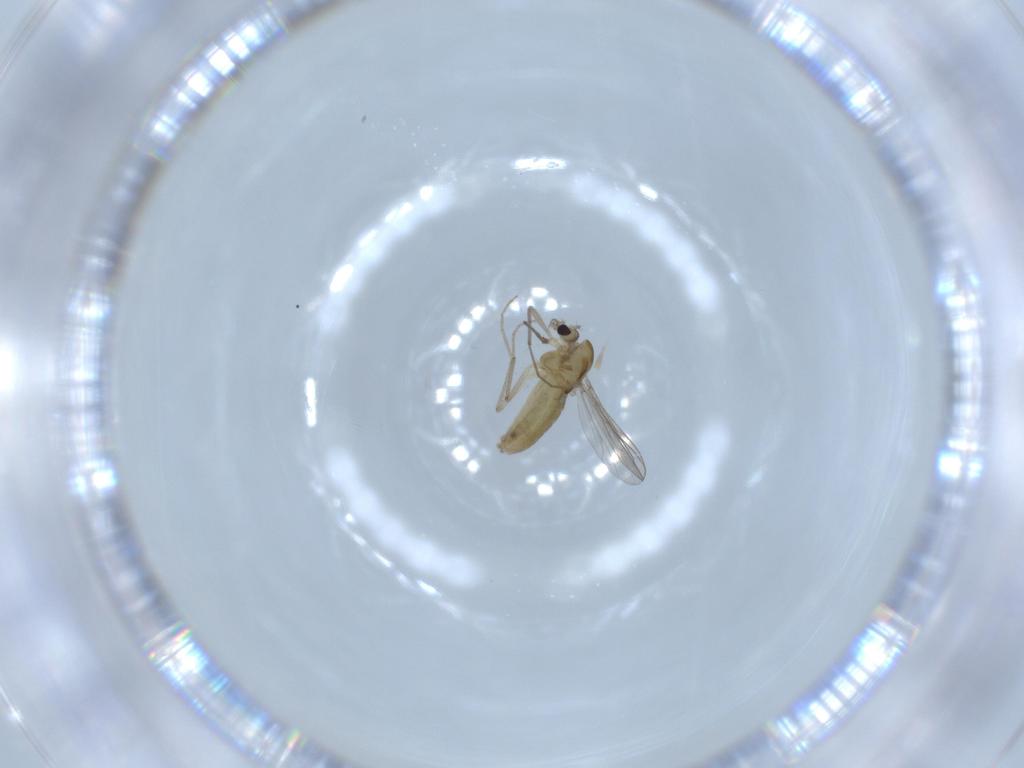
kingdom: Animalia
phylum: Arthropoda
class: Insecta
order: Diptera
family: Chironomidae
